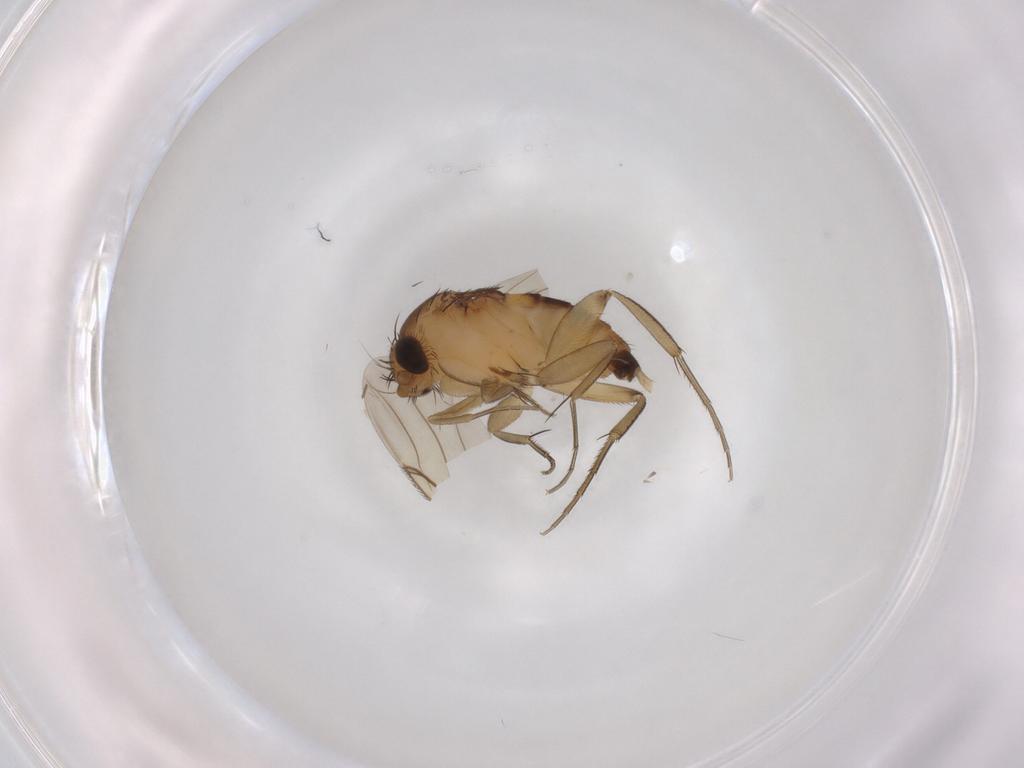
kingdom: Animalia
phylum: Arthropoda
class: Insecta
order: Diptera
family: Phoridae
